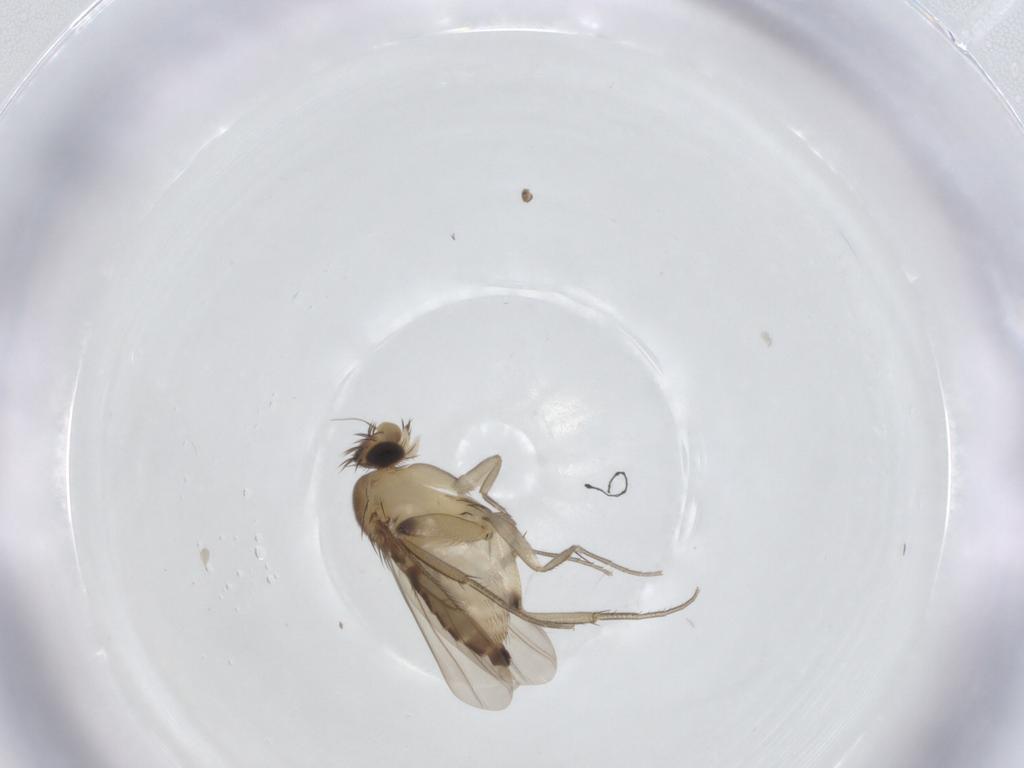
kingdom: Animalia
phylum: Arthropoda
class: Insecta
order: Diptera
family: Phoridae
